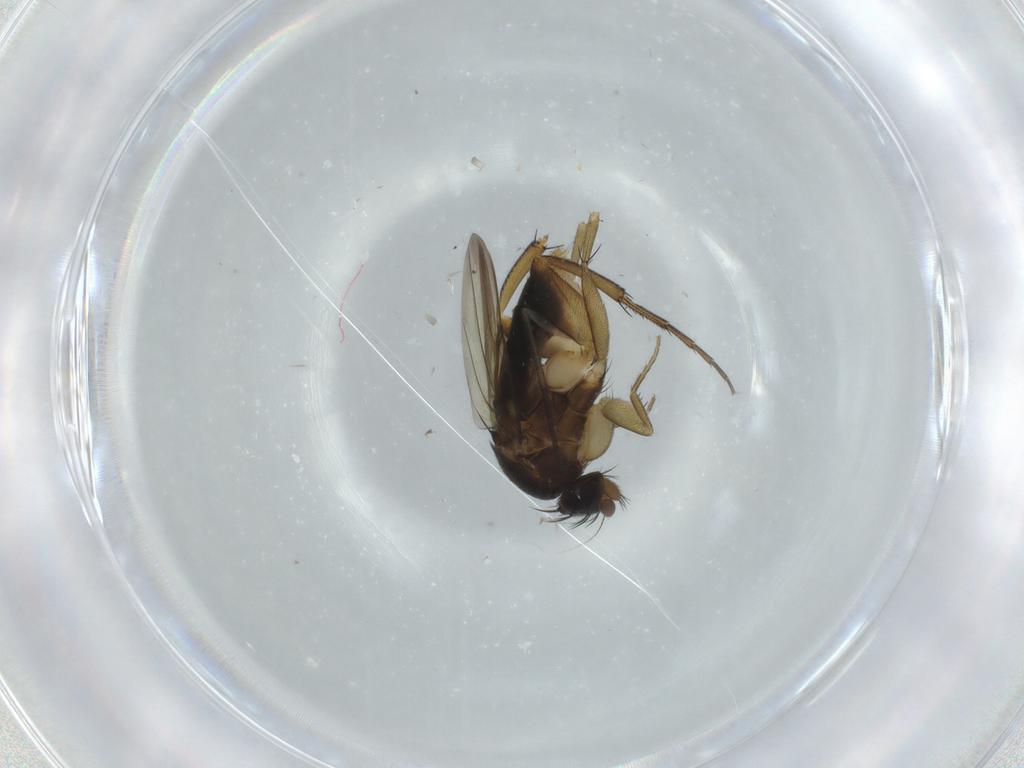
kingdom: Animalia
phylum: Arthropoda
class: Insecta
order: Diptera
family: Phoridae
